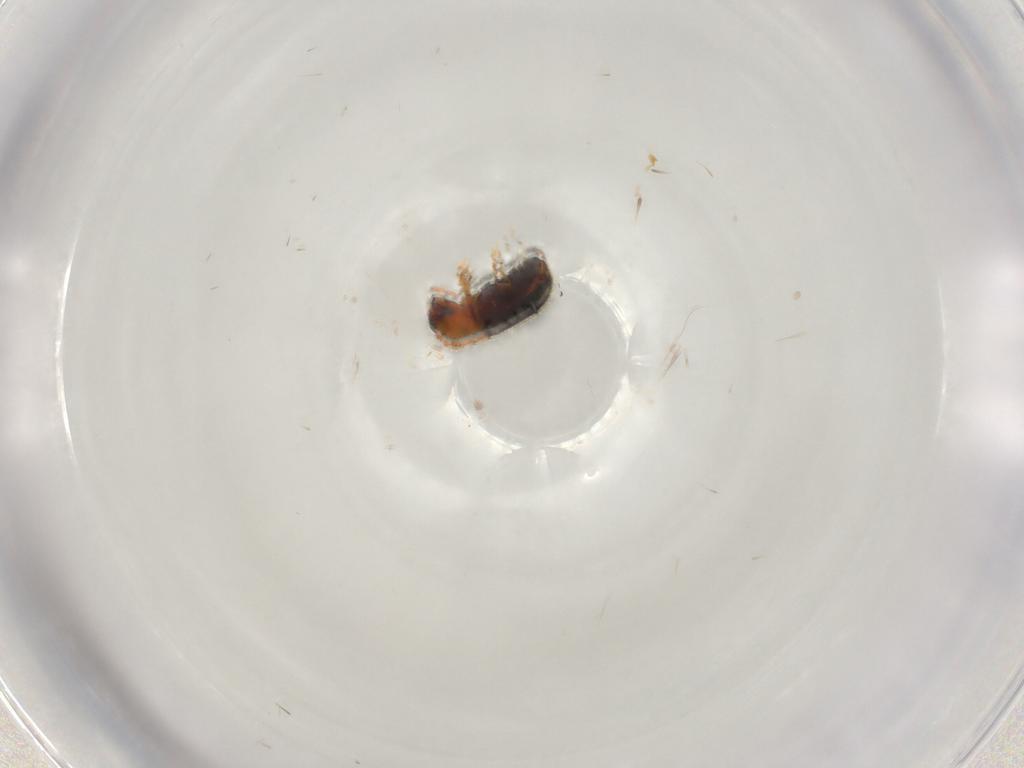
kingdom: Animalia
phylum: Arthropoda
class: Insecta
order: Coleoptera
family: Corylophidae
